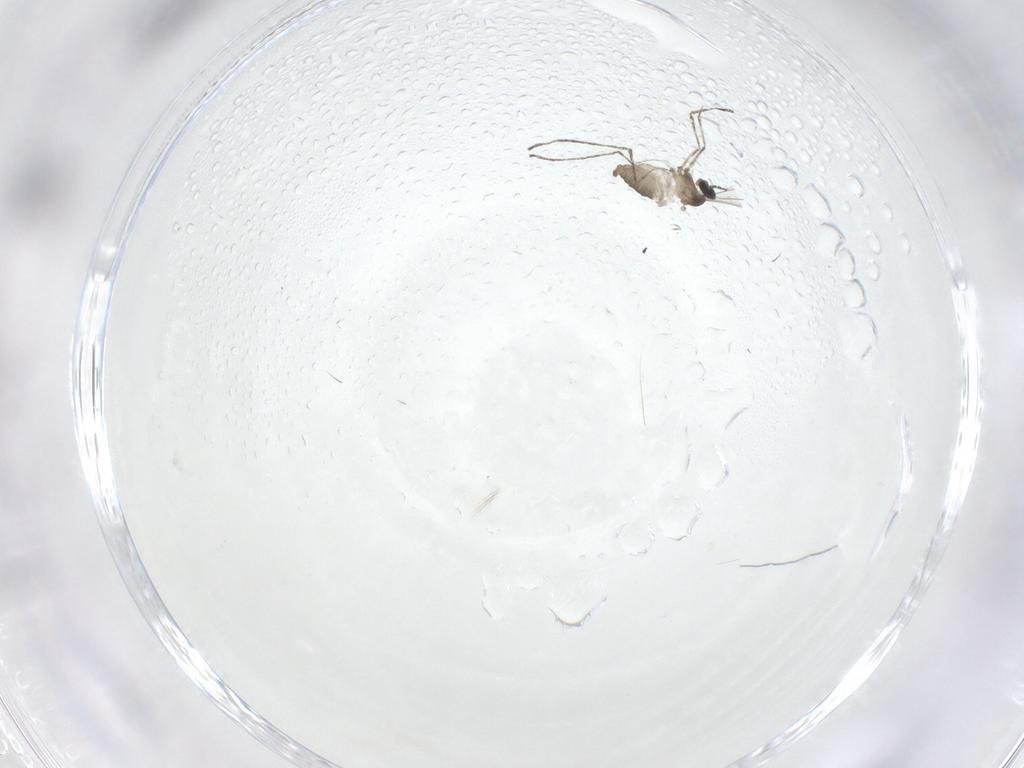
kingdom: Animalia
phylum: Arthropoda
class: Insecta
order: Diptera
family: Cecidomyiidae
